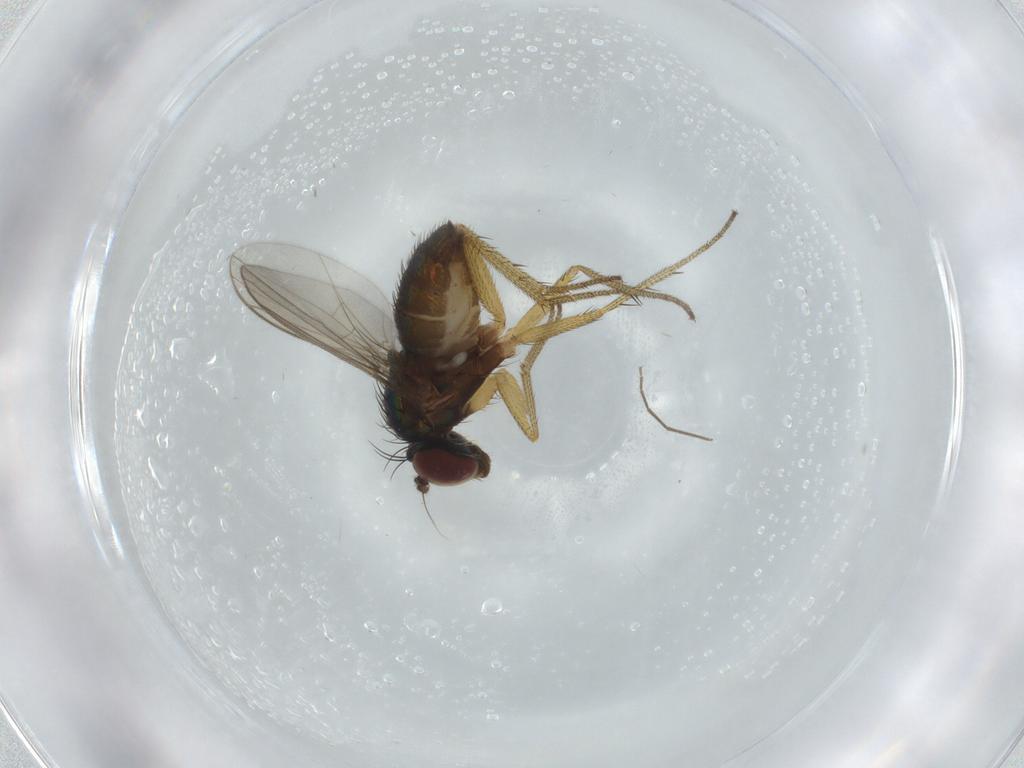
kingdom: Animalia
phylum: Arthropoda
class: Insecta
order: Diptera
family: Dolichopodidae
